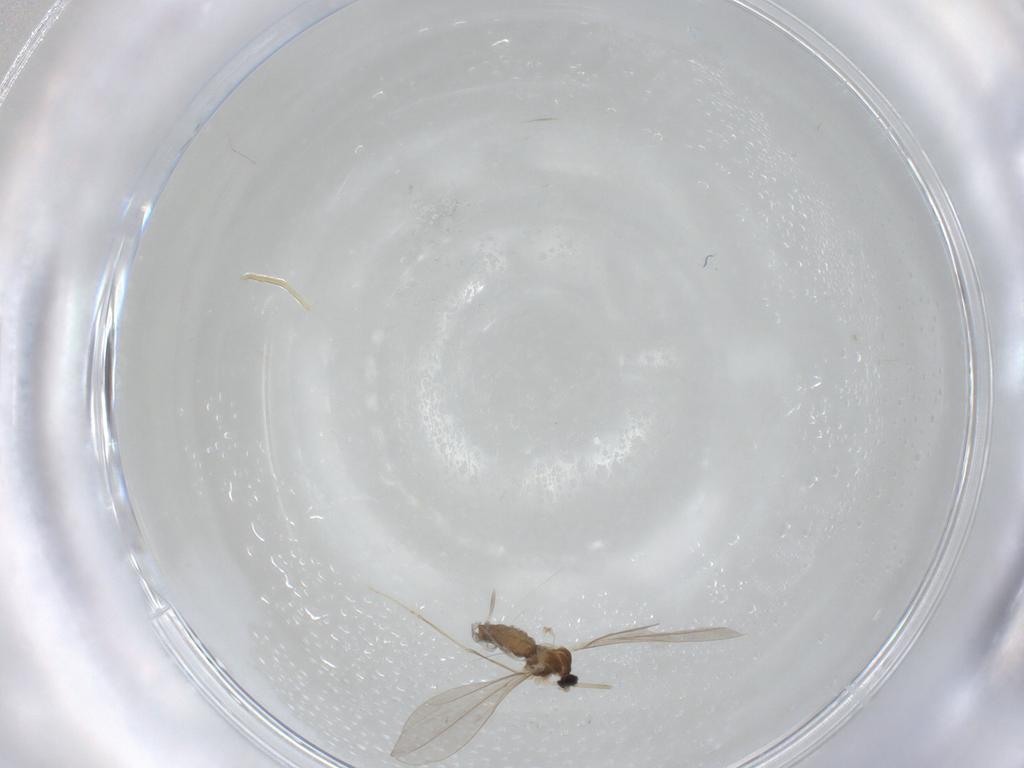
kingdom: Animalia
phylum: Arthropoda
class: Insecta
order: Diptera
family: Cecidomyiidae
